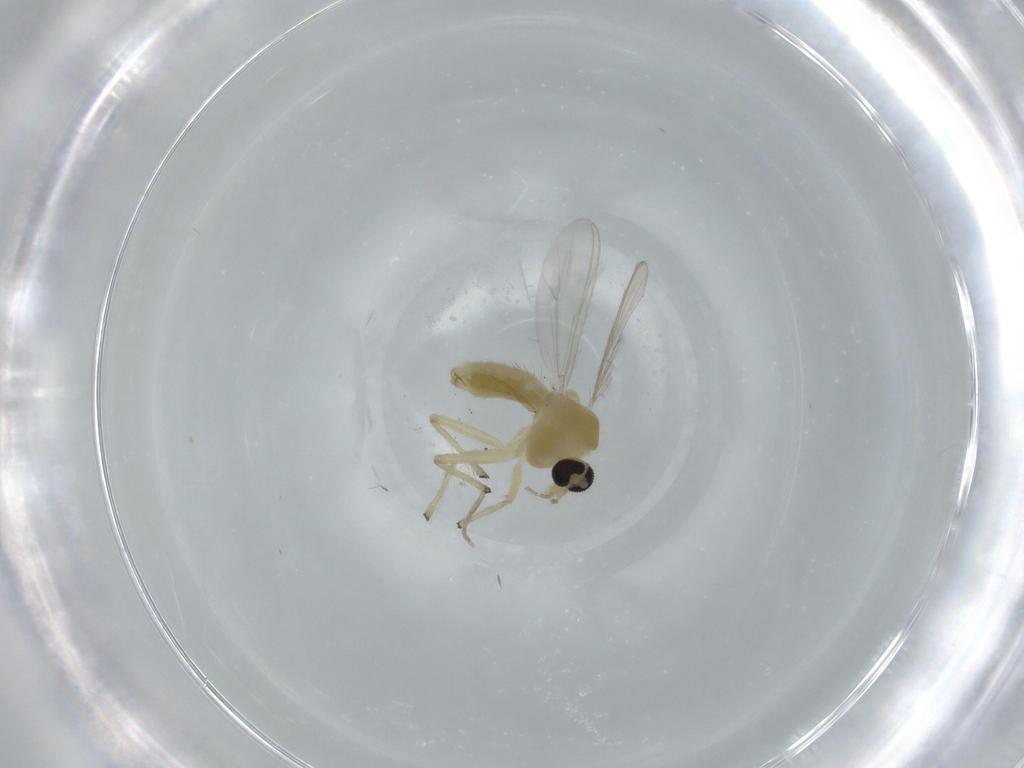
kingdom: Animalia
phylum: Arthropoda
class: Insecta
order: Diptera
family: Chironomidae
